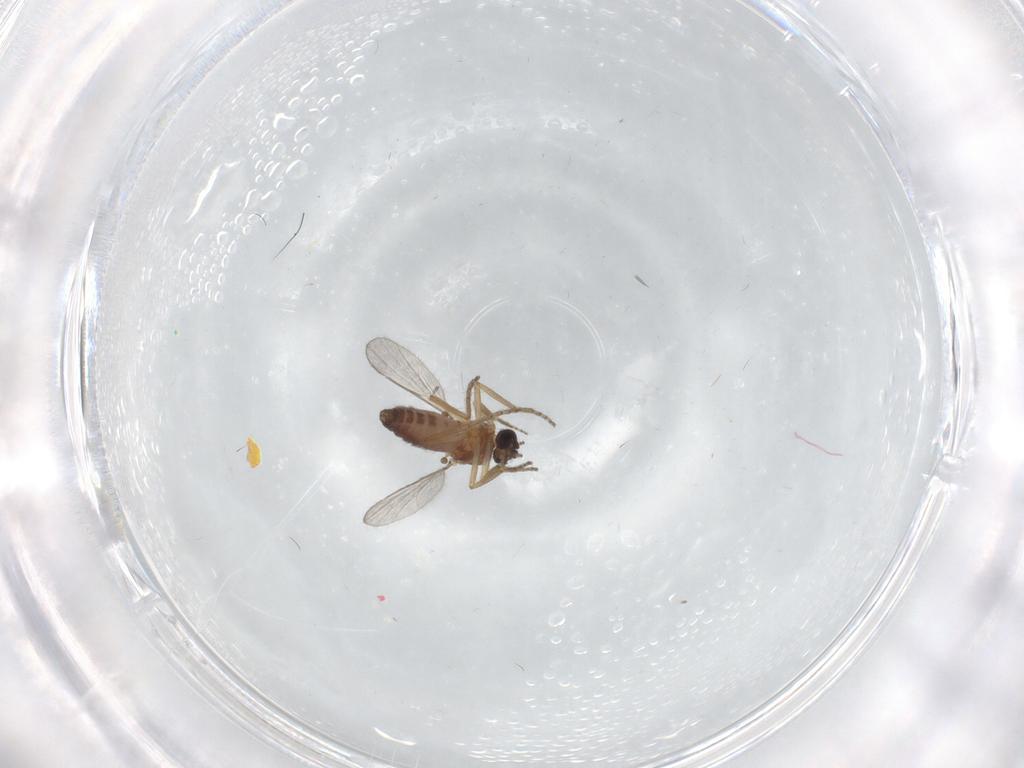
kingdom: Animalia
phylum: Arthropoda
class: Insecta
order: Diptera
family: Ceratopogonidae
